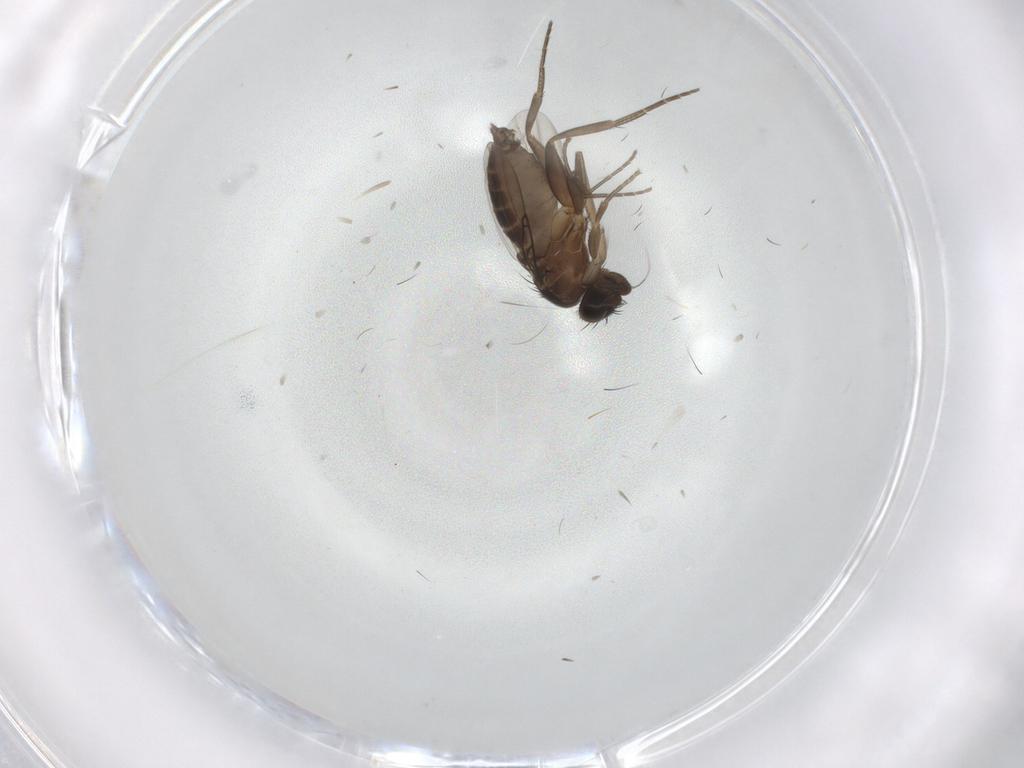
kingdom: Animalia
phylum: Arthropoda
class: Insecta
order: Diptera
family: Phoridae
